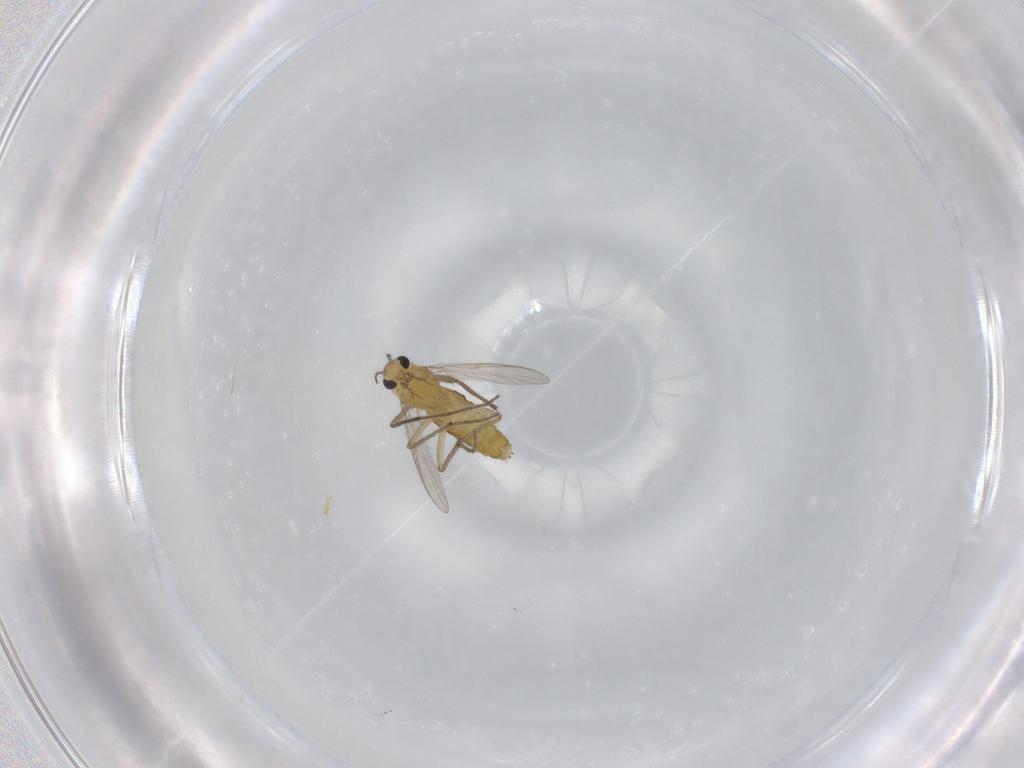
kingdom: Animalia
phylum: Arthropoda
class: Insecta
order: Diptera
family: Chironomidae
